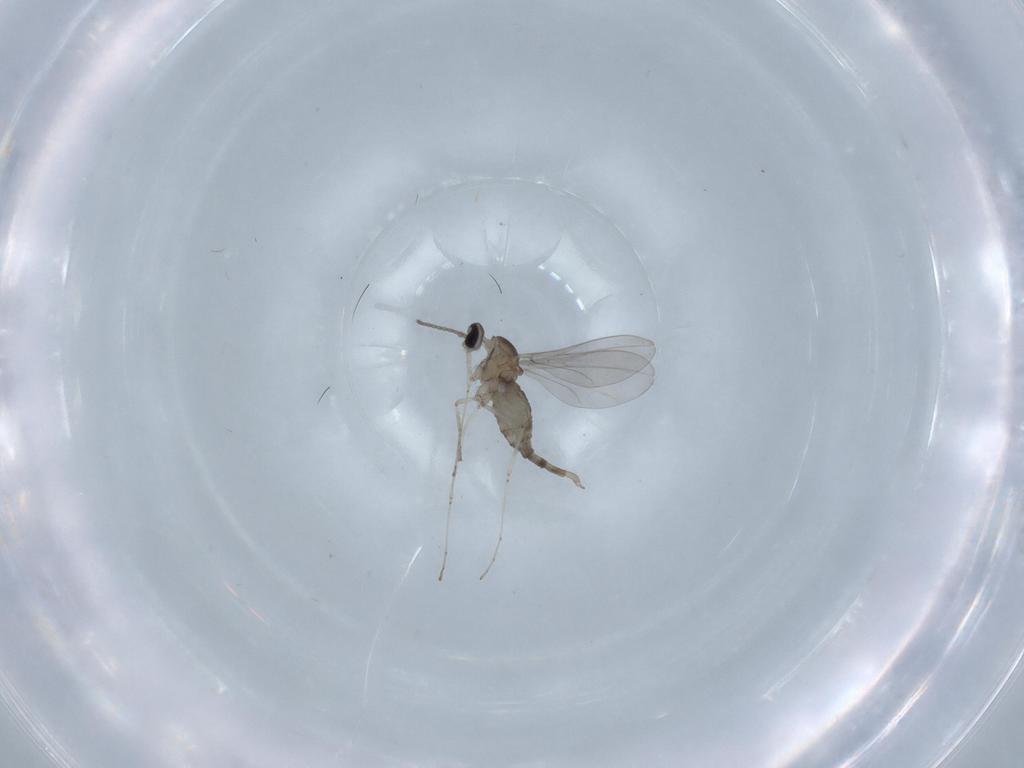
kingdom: Animalia
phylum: Arthropoda
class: Insecta
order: Diptera
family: Cecidomyiidae
